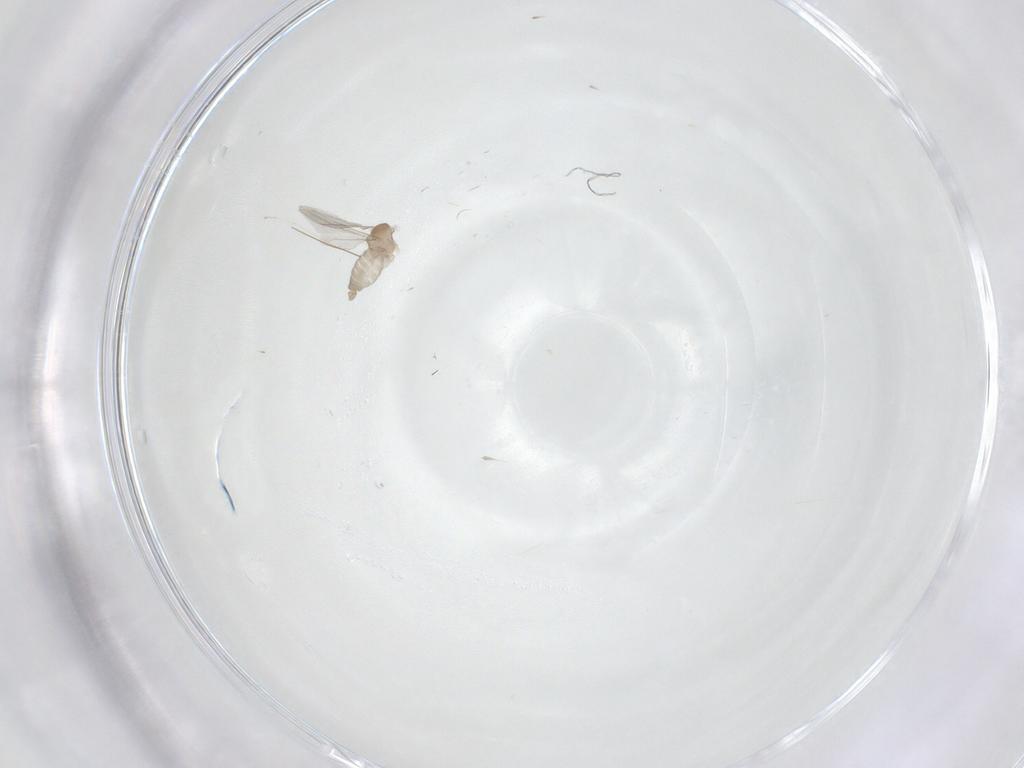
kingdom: Animalia
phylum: Arthropoda
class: Insecta
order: Diptera
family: Cecidomyiidae
